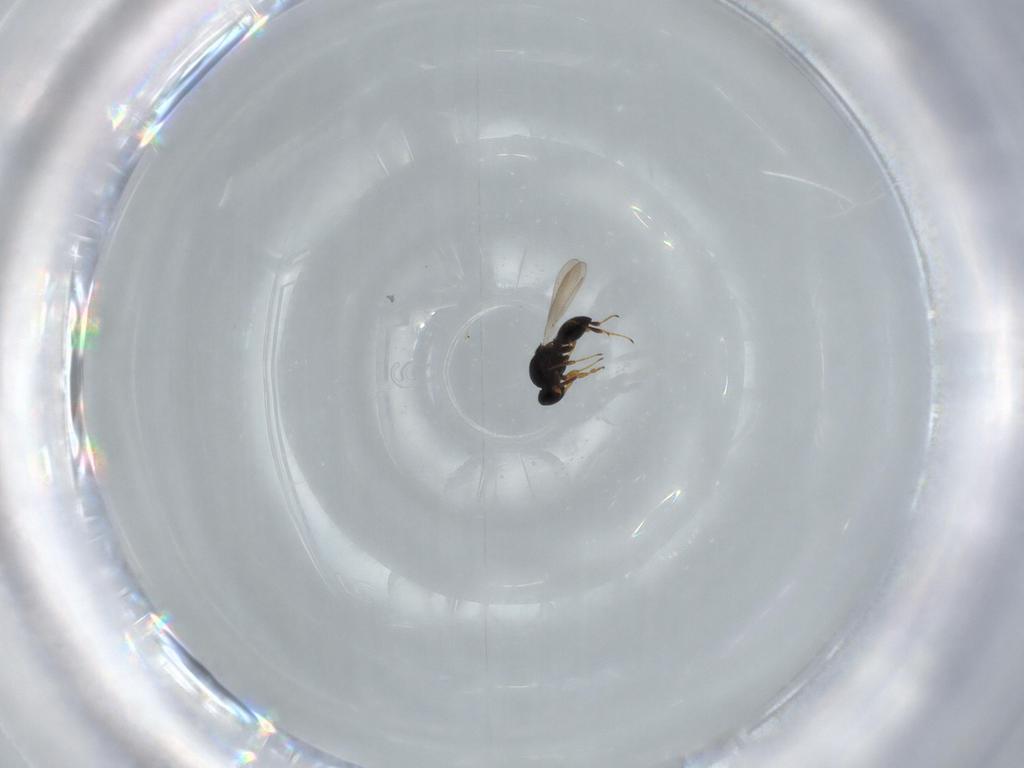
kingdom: Animalia
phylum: Arthropoda
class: Insecta
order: Hymenoptera
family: Platygastridae
